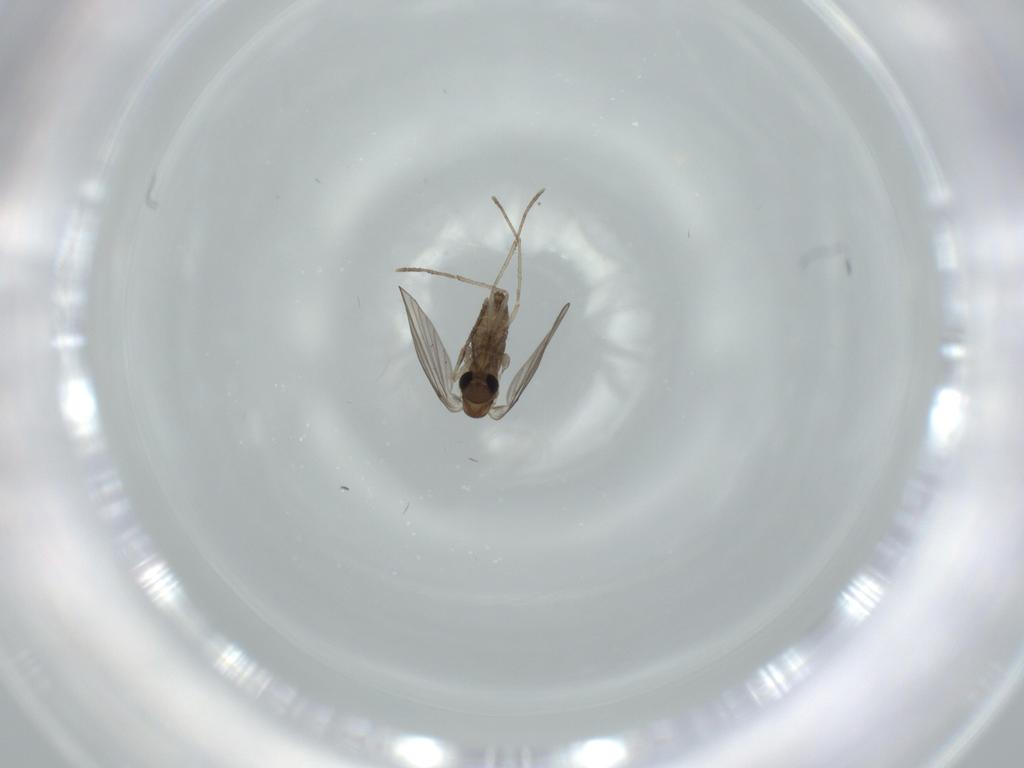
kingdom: Animalia
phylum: Arthropoda
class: Insecta
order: Diptera
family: Psychodidae
